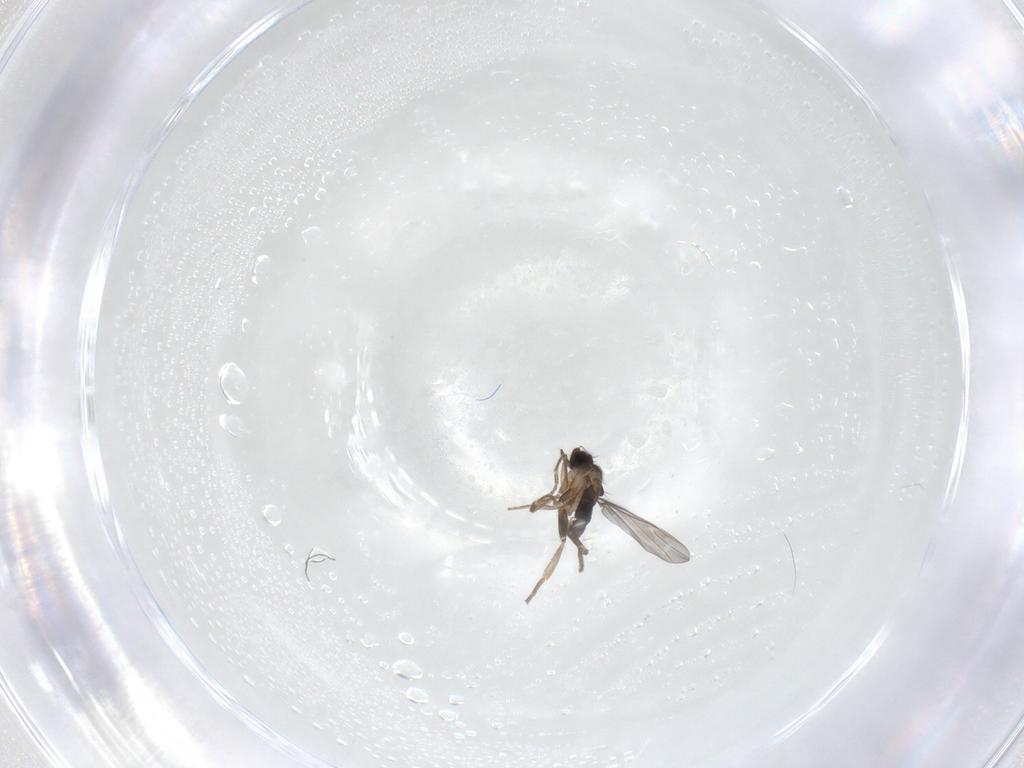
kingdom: Animalia
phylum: Arthropoda
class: Insecta
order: Diptera
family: Phoridae
